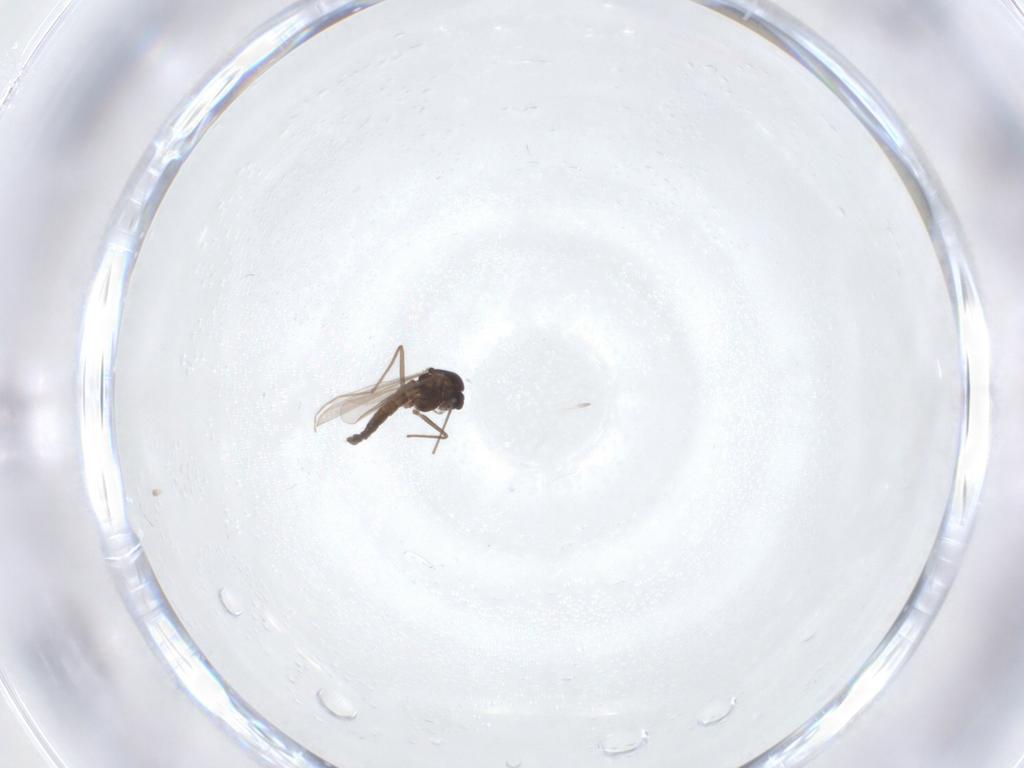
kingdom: Animalia
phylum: Arthropoda
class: Insecta
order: Diptera
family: Chironomidae
